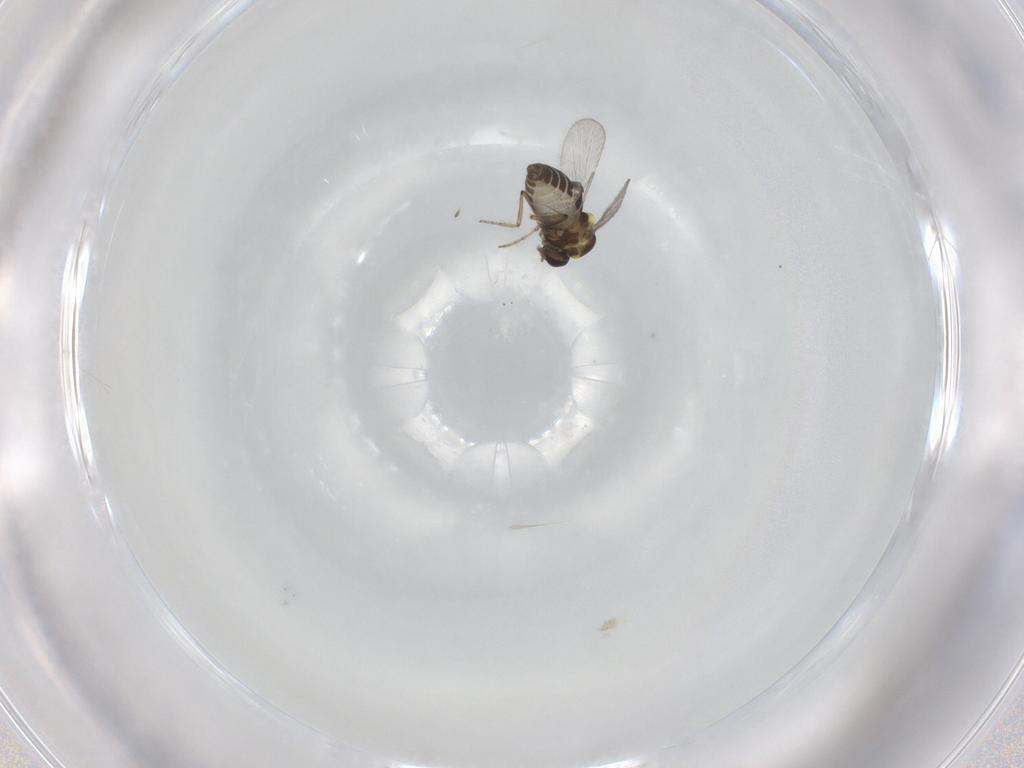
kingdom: Animalia
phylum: Arthropoda
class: Insecta
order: Diptera
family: Ceratopogonidae
